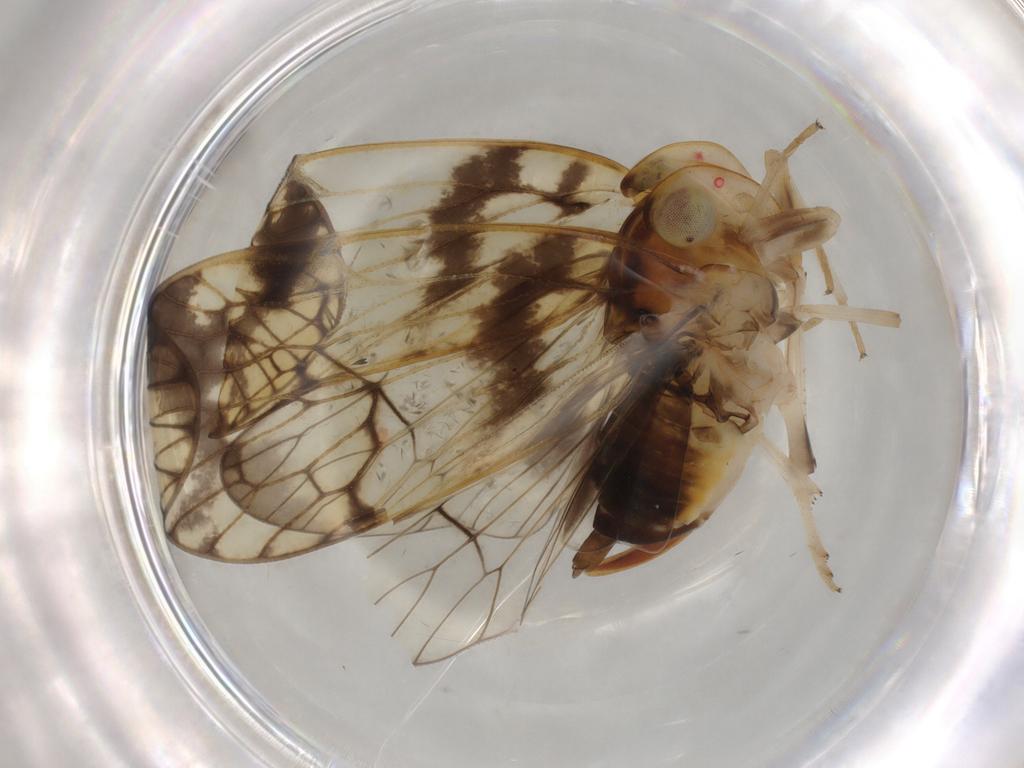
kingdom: Animalia
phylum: Arthropoda
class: Insecta
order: Hemiptera
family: Cixiidae
